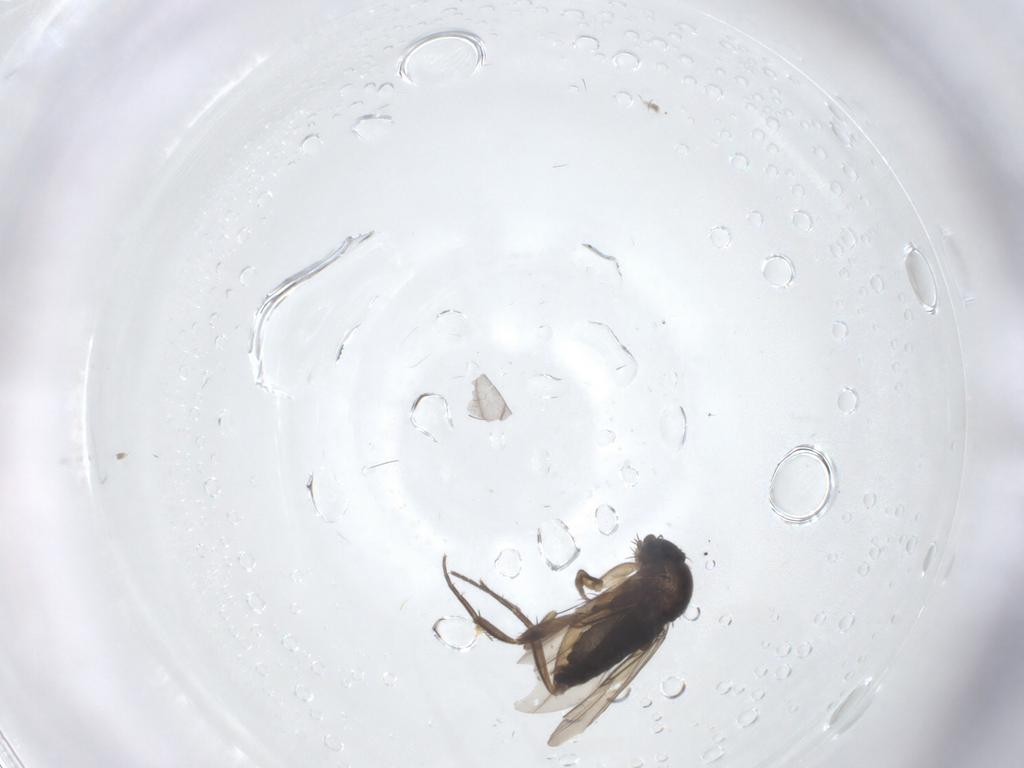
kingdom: Animalia
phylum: Arthropoda
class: Insecta
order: Diptera
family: Phoridae
